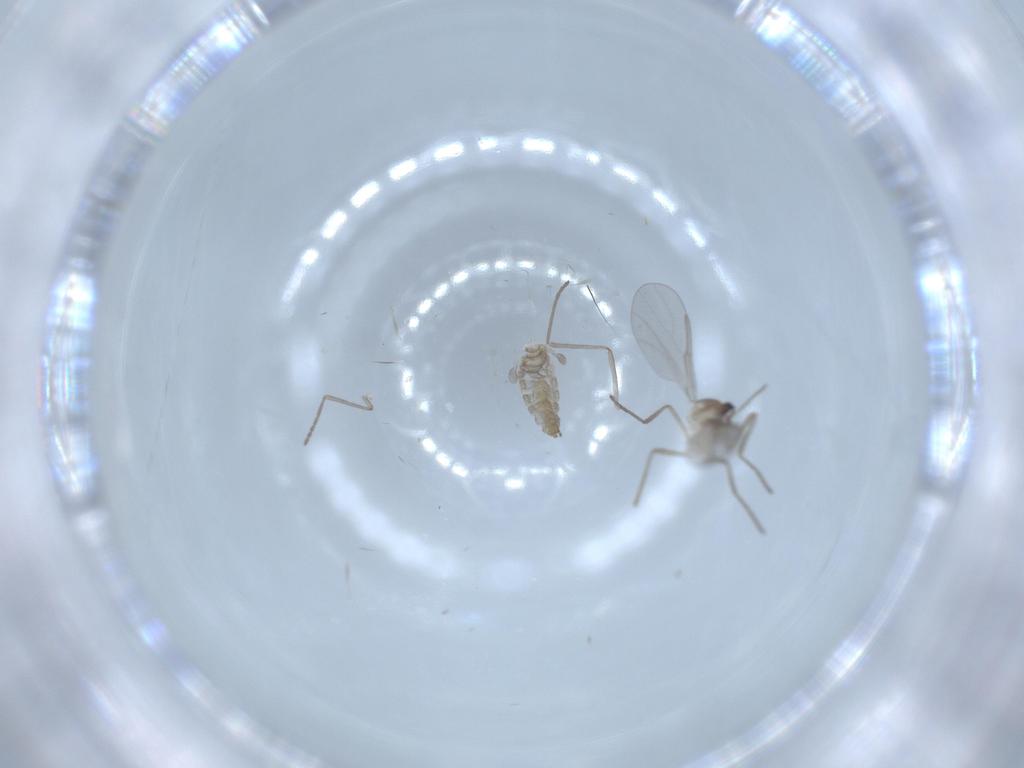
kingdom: Animalia
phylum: Arthropoda
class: Insecta
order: Diptera
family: Cecidomyiidae
